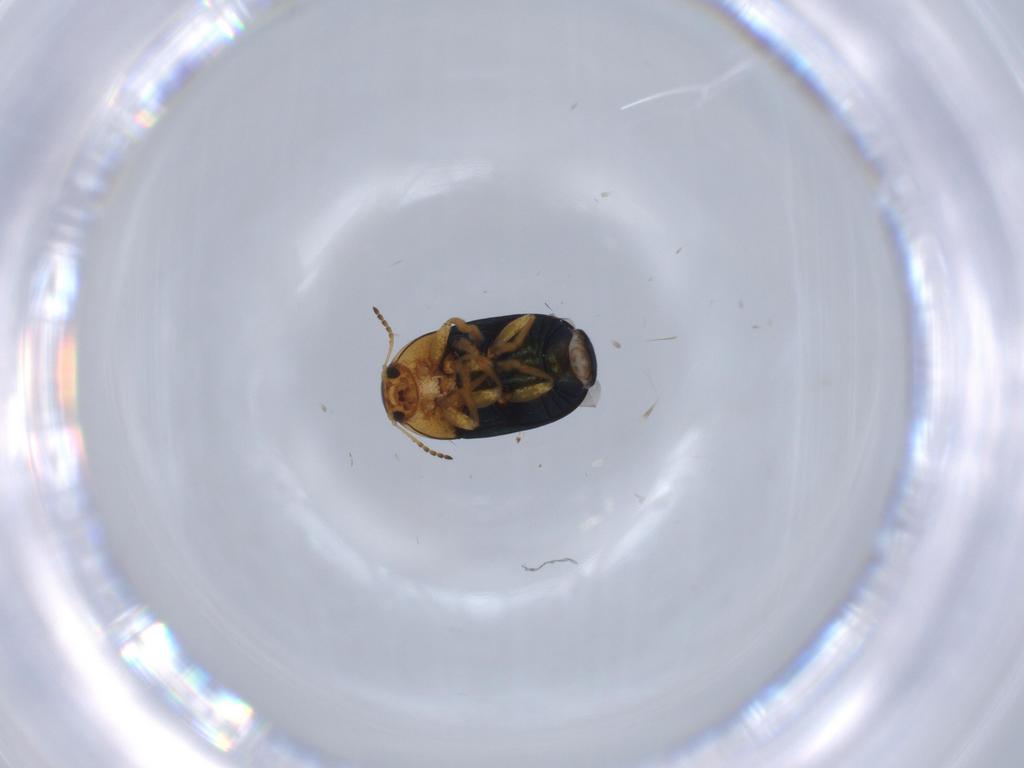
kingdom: Animalia
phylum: Arthropoda
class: Insecta
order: Coleoptera
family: Chrysomelidae
